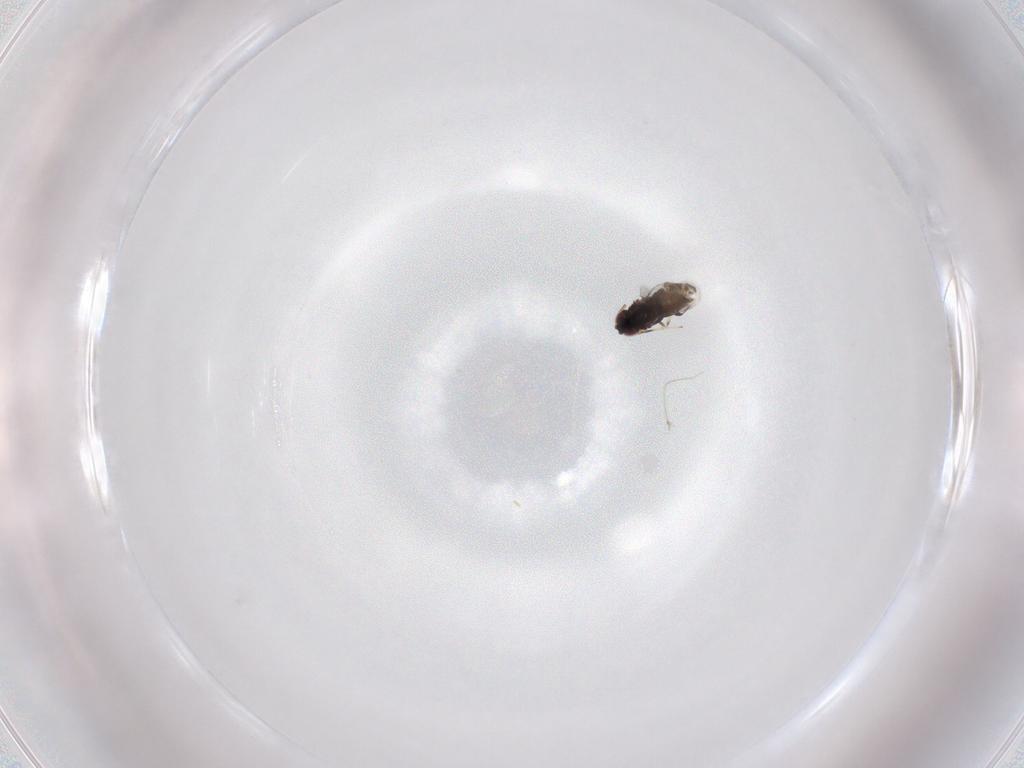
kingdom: Animalia
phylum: Arthropoda
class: Insecta
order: Hymenoptera
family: Encyrtidae
